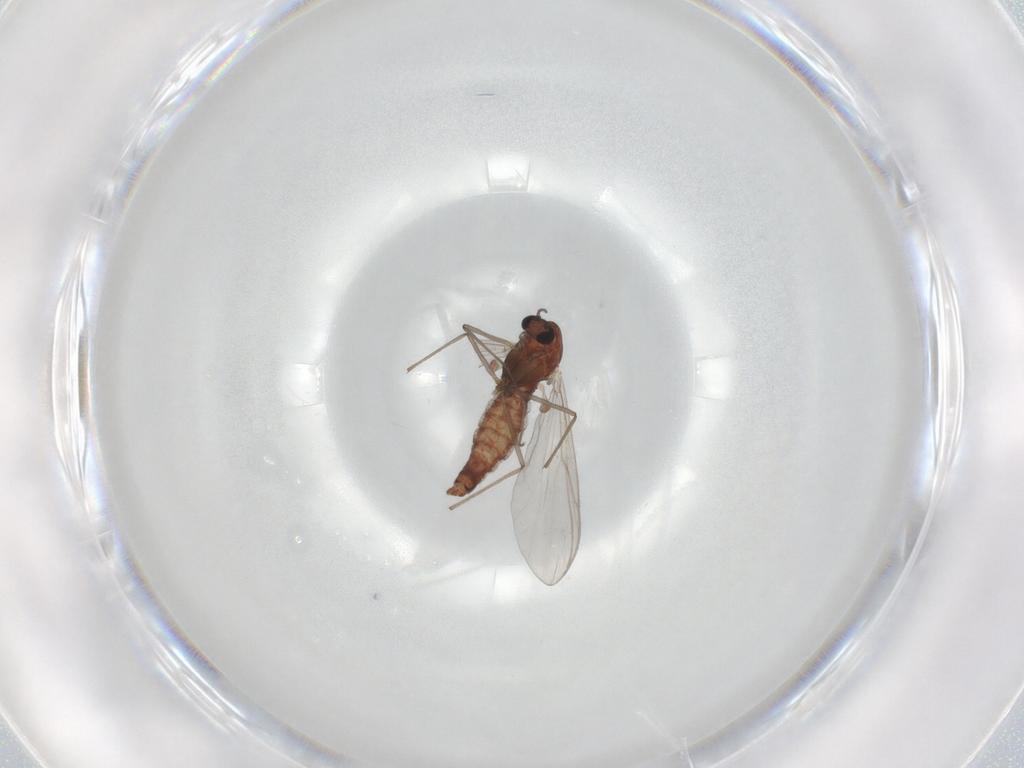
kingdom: Animalia
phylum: Arthropoda
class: Insecta
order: Diptera
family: Chironomidae
